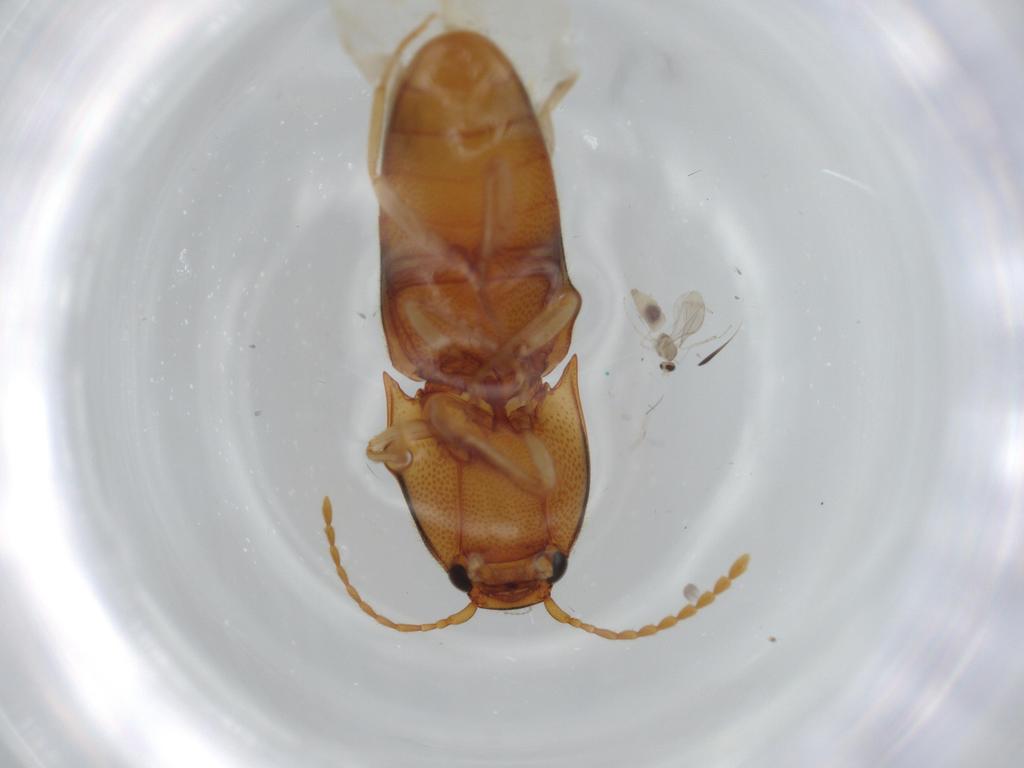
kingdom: Animalia
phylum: Arthropoda
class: Insecta
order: Diptera
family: Cecidomyiidae
